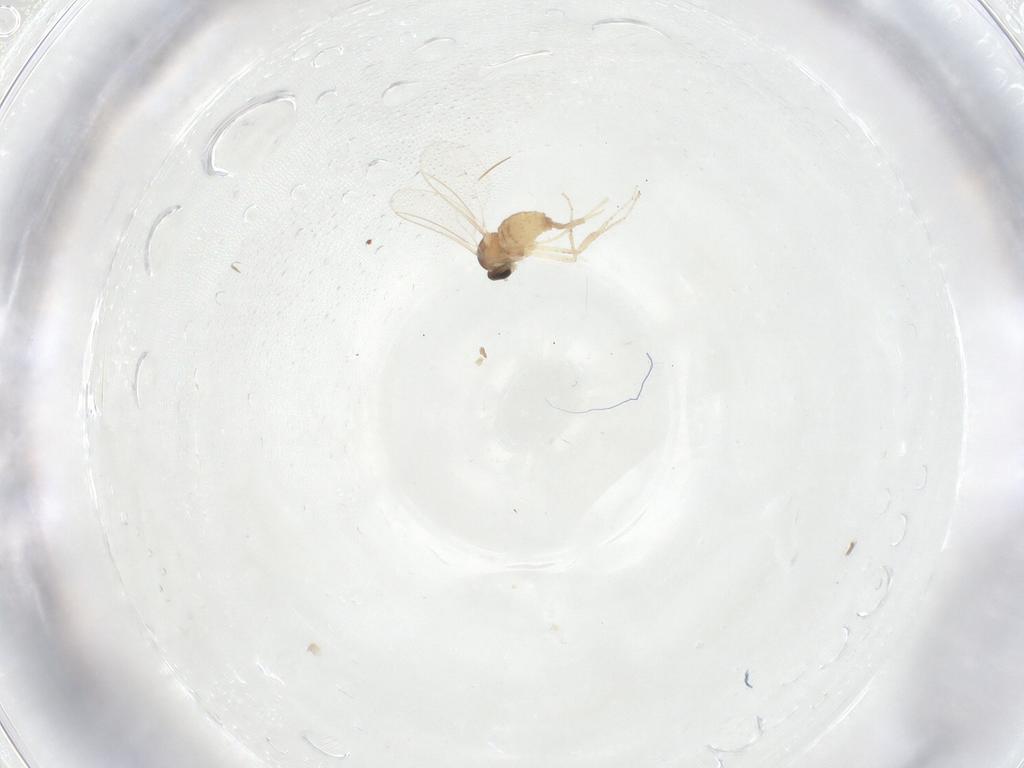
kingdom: Animalia
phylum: Arthropoda
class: Insecta
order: Diptera
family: Cecidomyiidae
